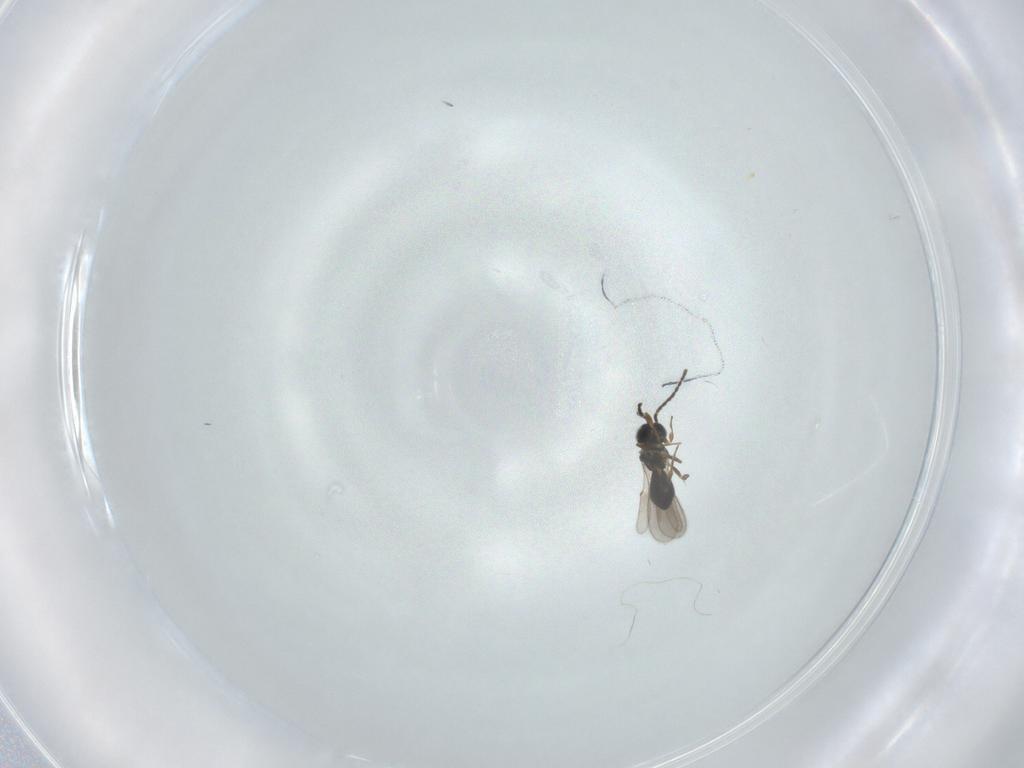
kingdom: Animalia
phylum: Arthropoda
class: Insecta
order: Hymenoptera
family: Scelionidae
